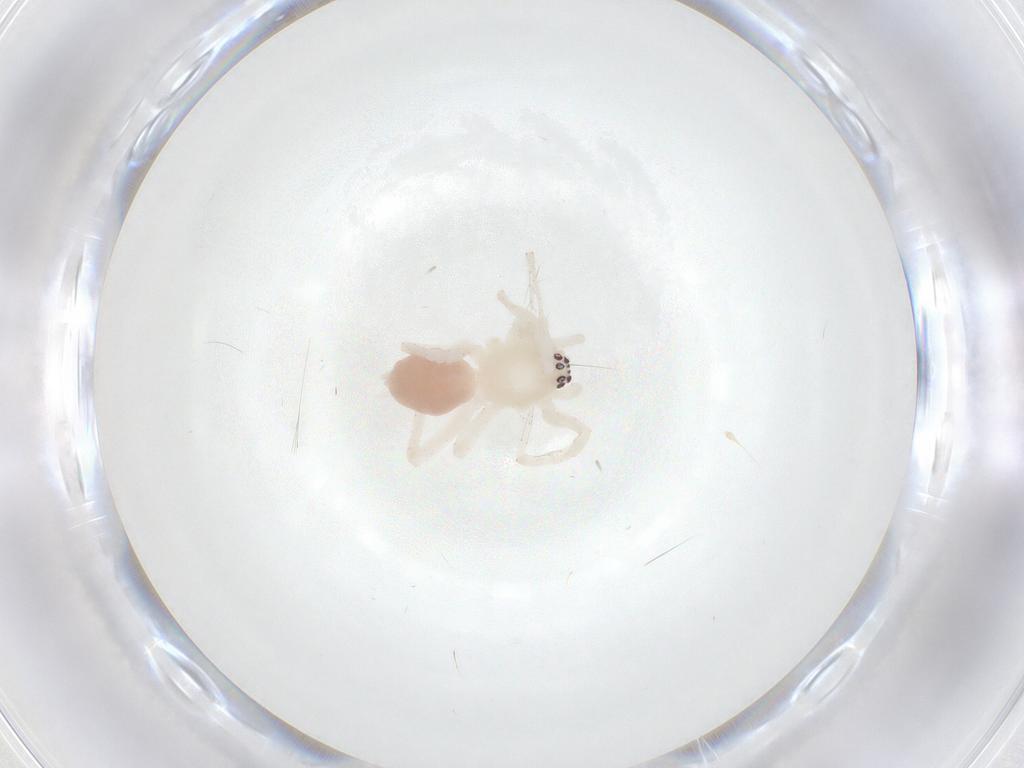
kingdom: Animalia
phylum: Arthropoda
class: Arachnida
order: Araneae
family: Anyphaenidae
